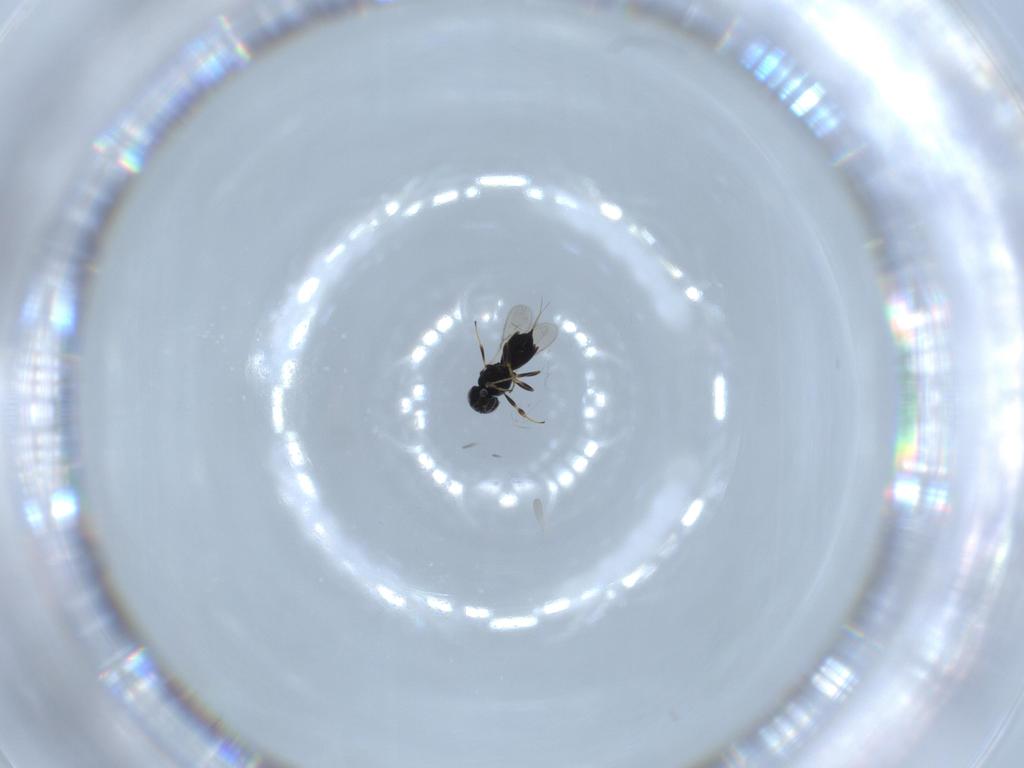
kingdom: Animalia
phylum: Arthropoda
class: Insecta
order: Hymenoptera
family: Scelionidae
